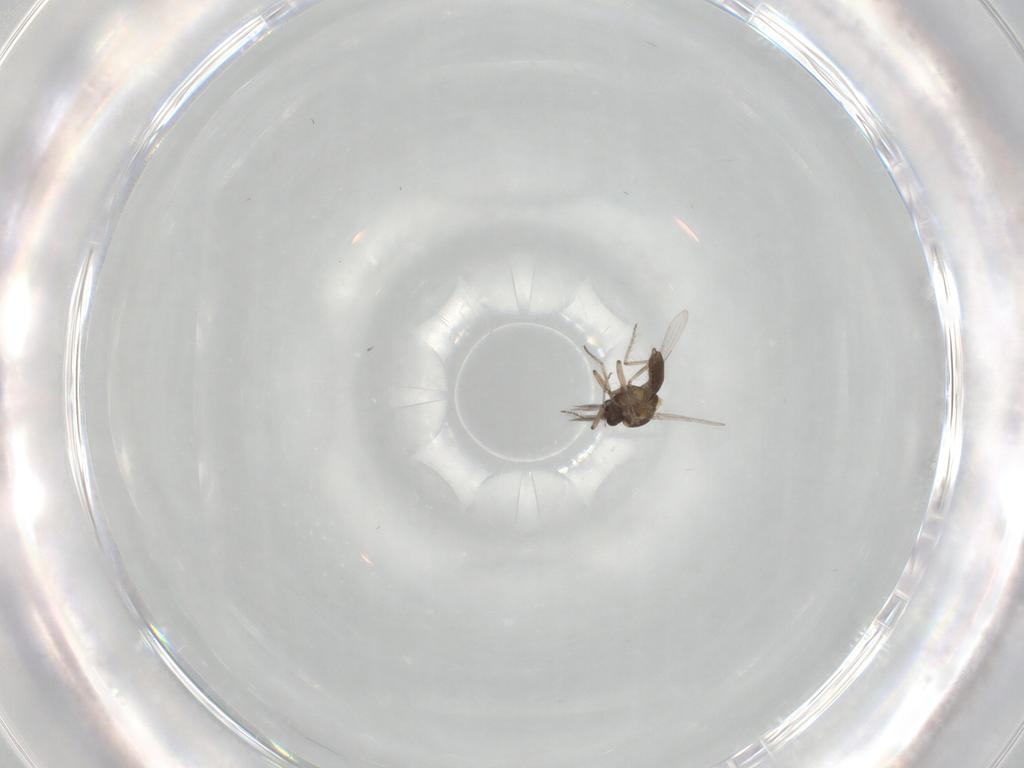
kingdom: Animalia
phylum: Arthropoda
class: Insecta
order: Diptera
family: Ceratopogonidae
